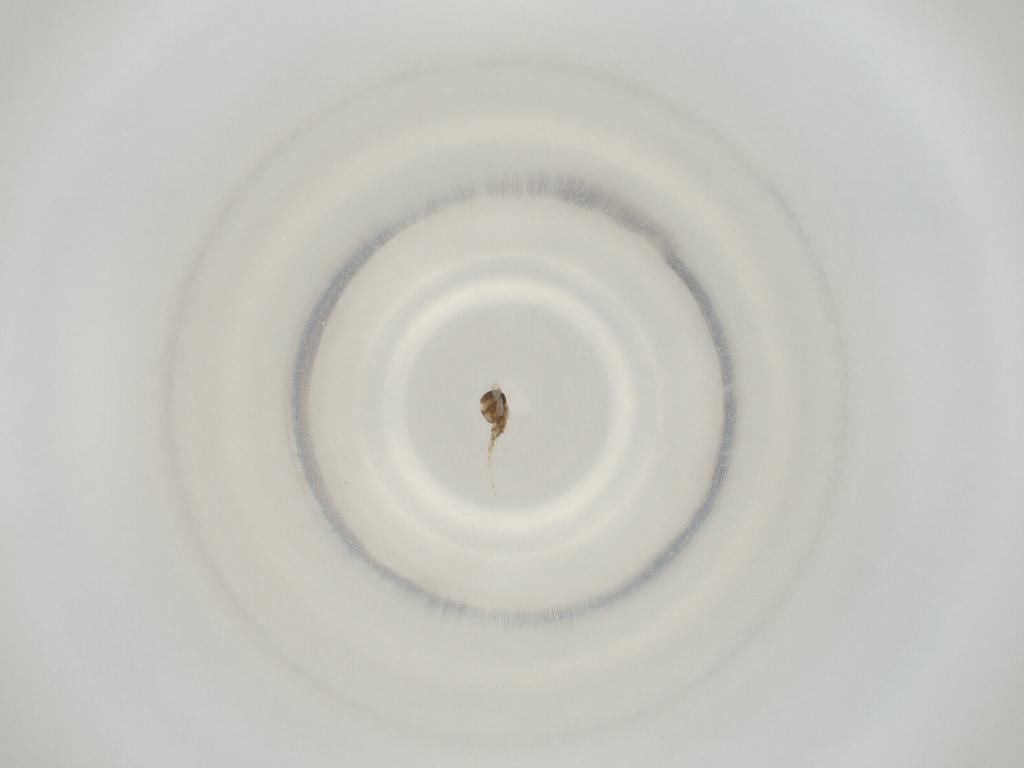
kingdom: Animalia
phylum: Arthropoda
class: Insecta
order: Diptera
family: Cecidomyiidae
